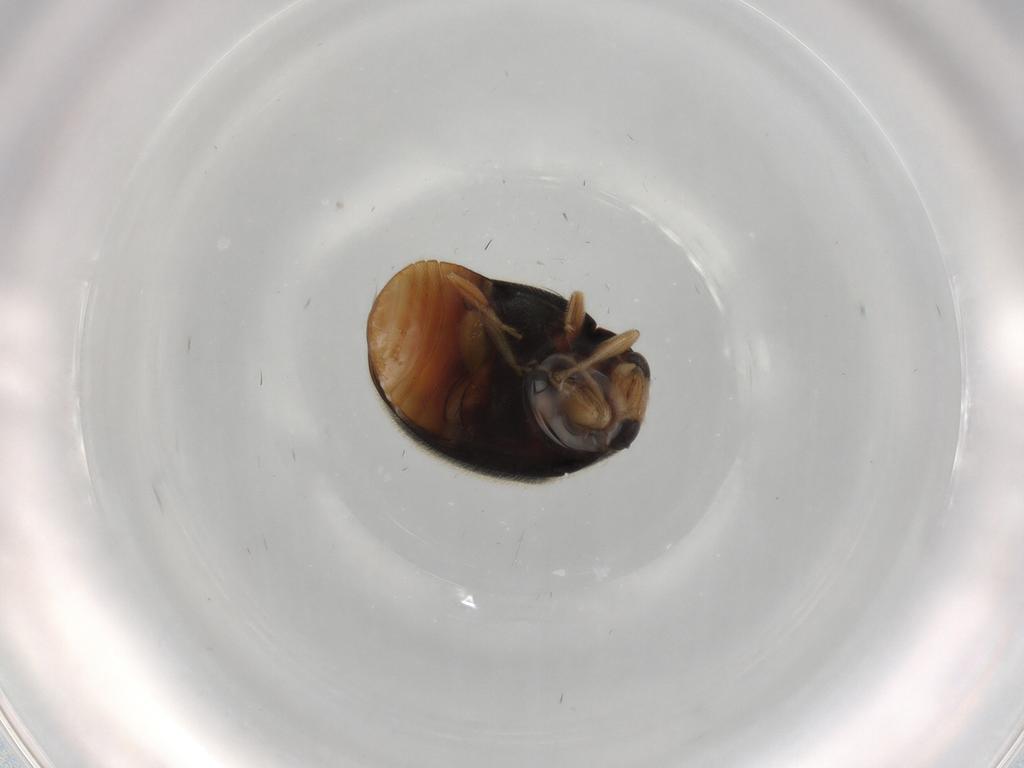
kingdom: Animalia
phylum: Arthropoda
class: Insecta
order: Coleoptera
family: Coccinellidae
